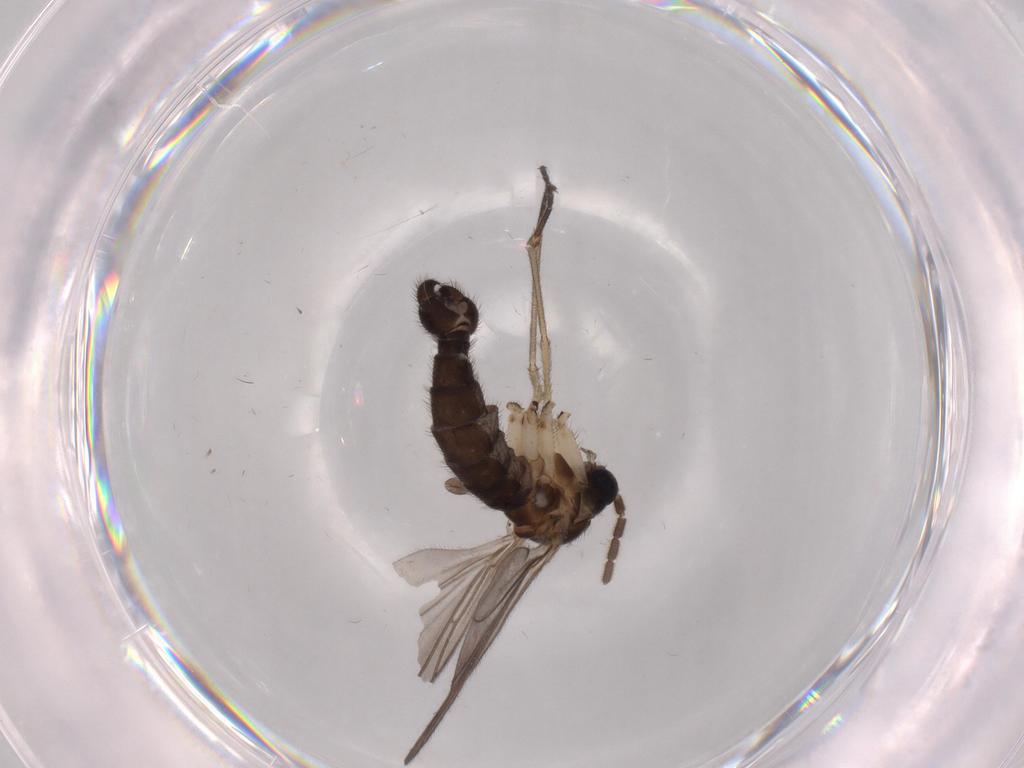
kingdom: Animalia
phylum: Arthropoda
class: Insecta
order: Diptera
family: Sciaridae
